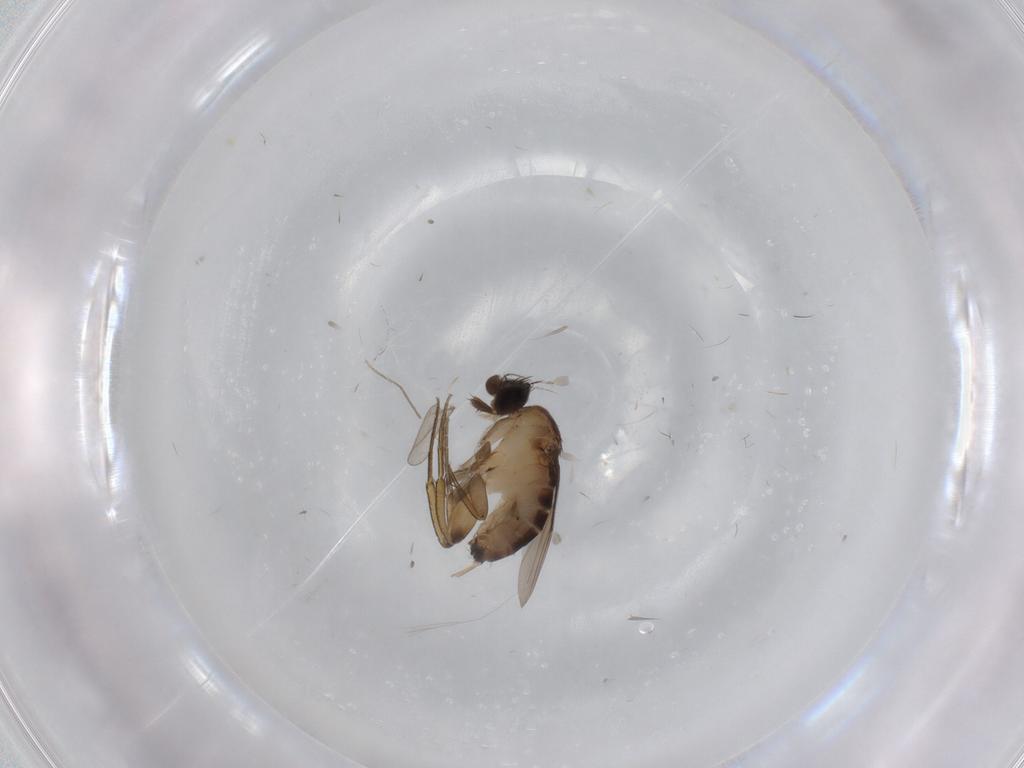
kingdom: Animalia
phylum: Arthropoda
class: Insecta
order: Diptera
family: Phoridae
